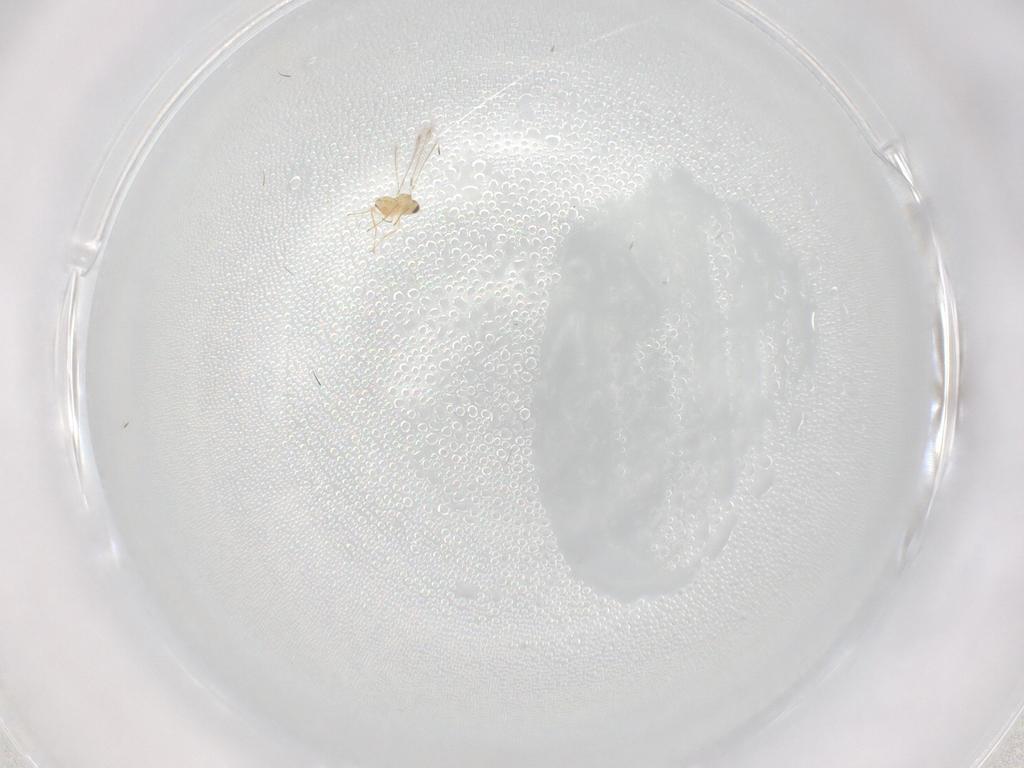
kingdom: Animalia
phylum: Arthropoda
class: Insecta
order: Hymenoptera
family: Mymaridae
